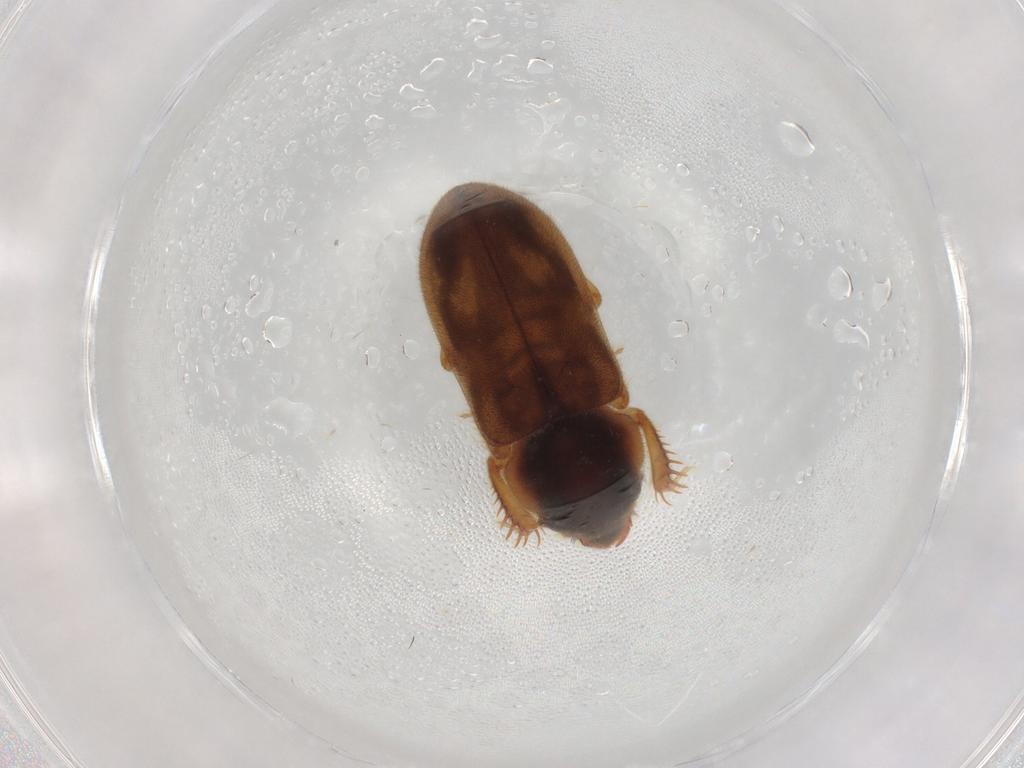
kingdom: Animalia
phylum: Arthropoda
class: Insecta
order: Coleoptera
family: Staphylinidae
